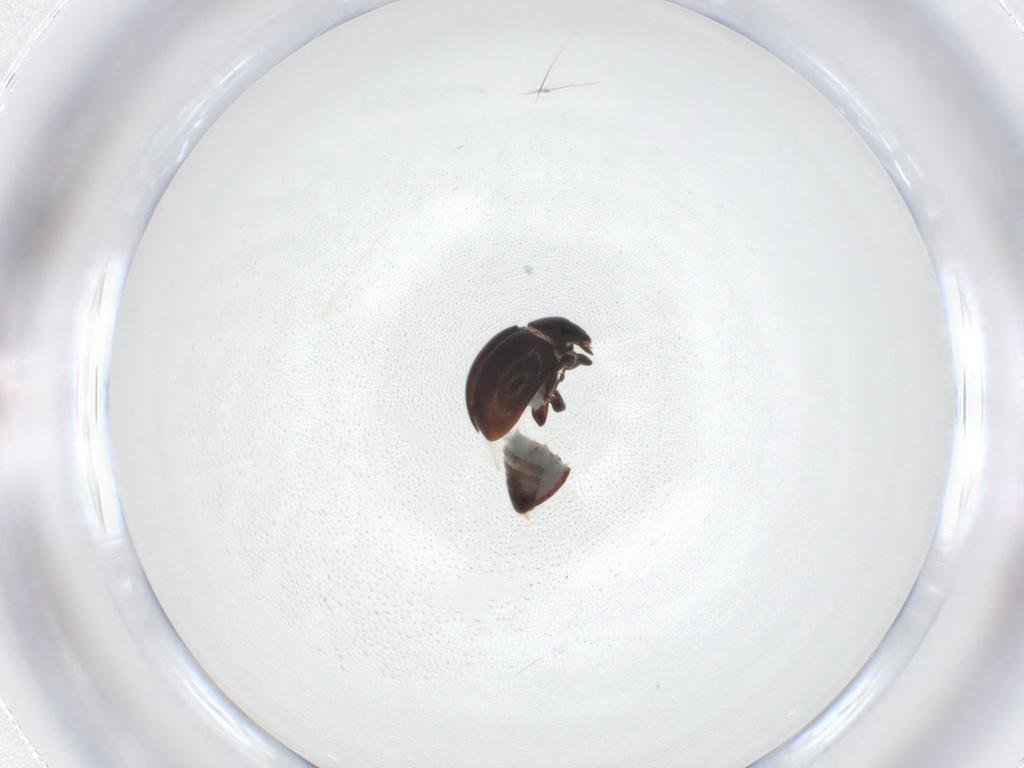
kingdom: Animalia
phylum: Arthropoda
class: Insecta
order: Coleoptera
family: Coccinellidae
